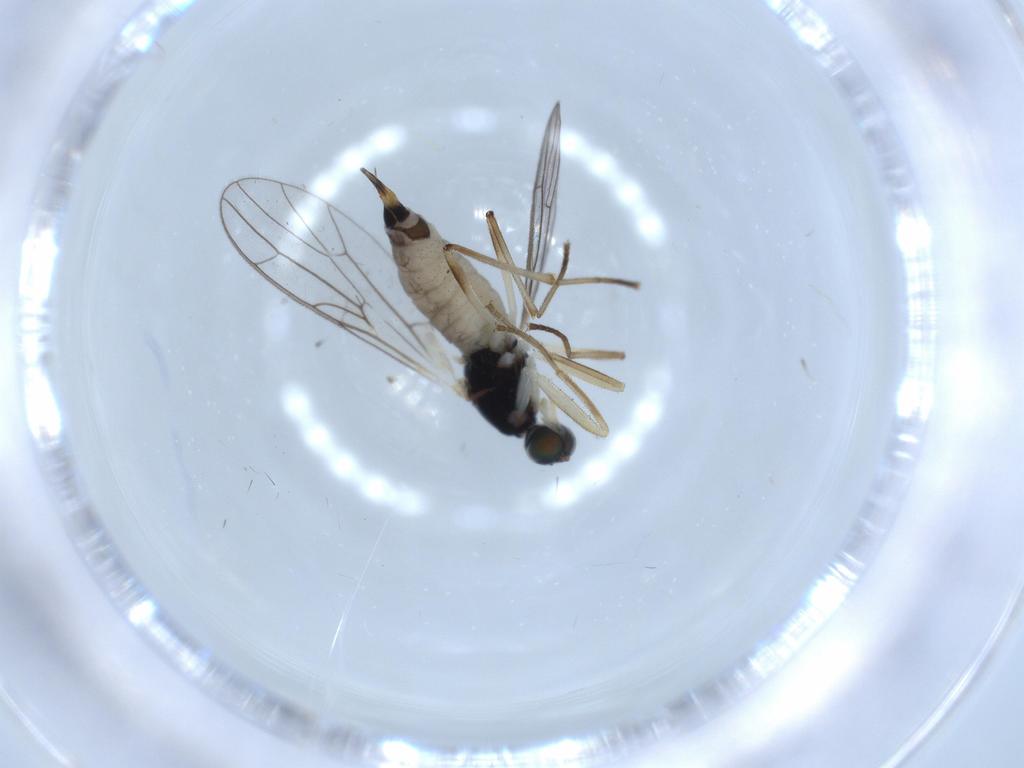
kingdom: Animalia
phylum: Arthropoda
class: Insecta
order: Diptera
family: Empididae
